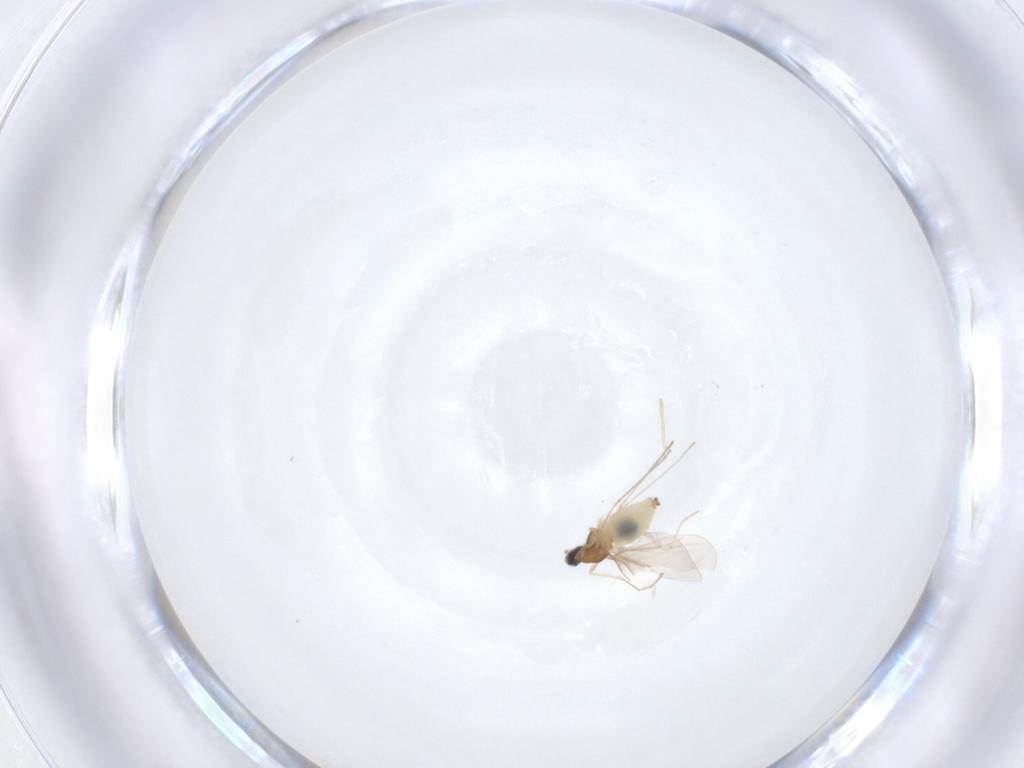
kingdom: Animalia
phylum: Arthropoda
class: Insecta
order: Diptera
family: Cecidomyiidae
